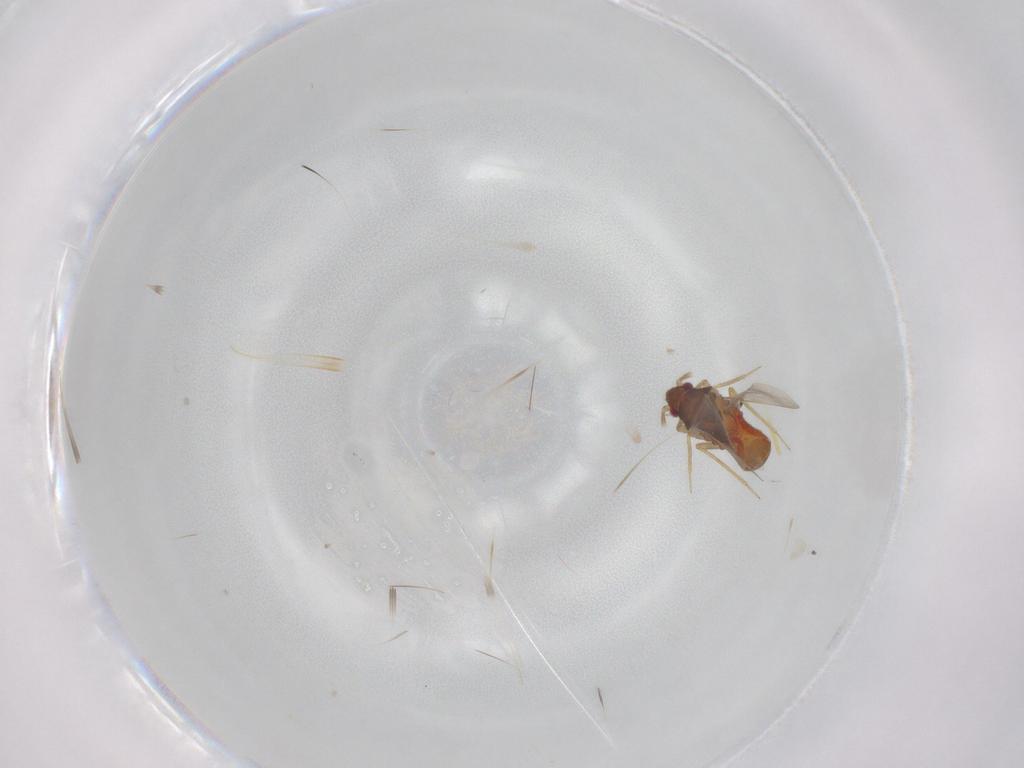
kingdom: Animalia
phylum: Arthropoda
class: Insecta
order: Hemiptera
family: Ceratocombidae
